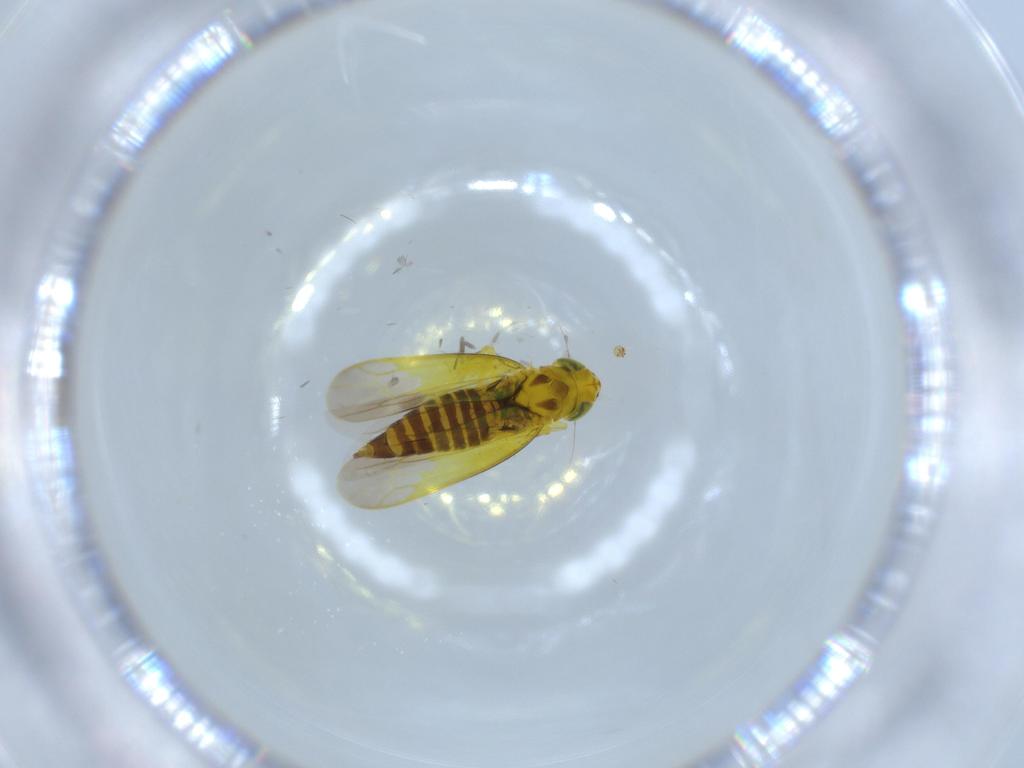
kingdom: Animalia
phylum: Arthropoda
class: Insecta
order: Hemiptera
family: Cicadellidae
